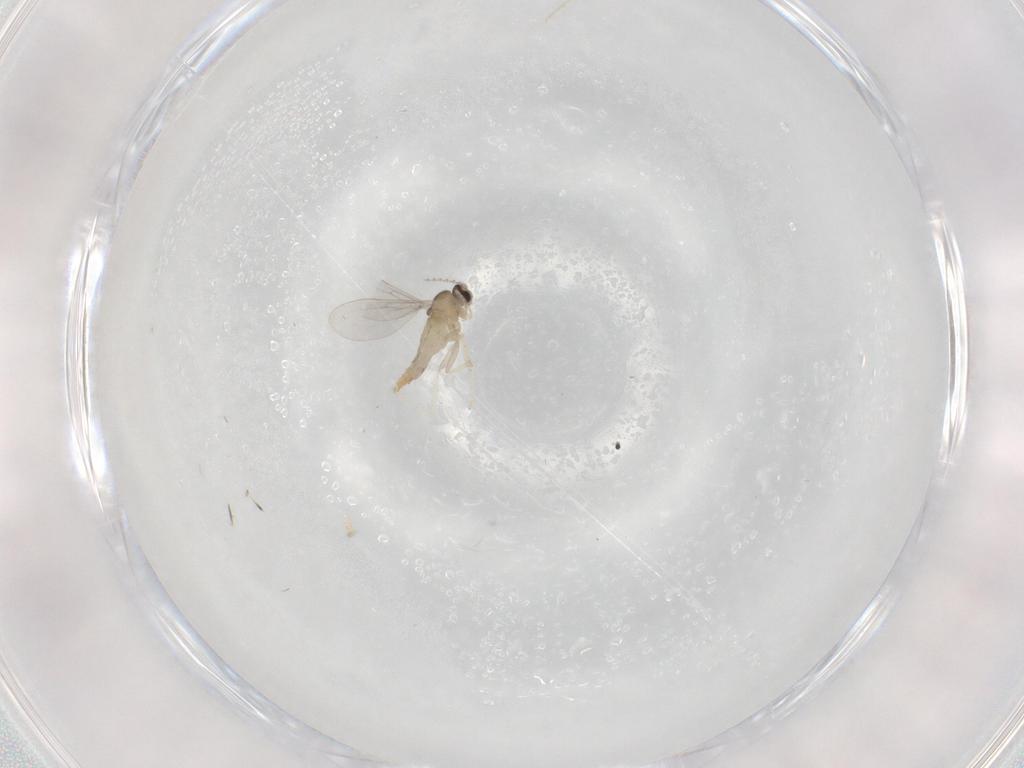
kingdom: Animalia
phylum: Arthropoda
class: Insecta
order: Diptera
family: Cecidomyiidae
